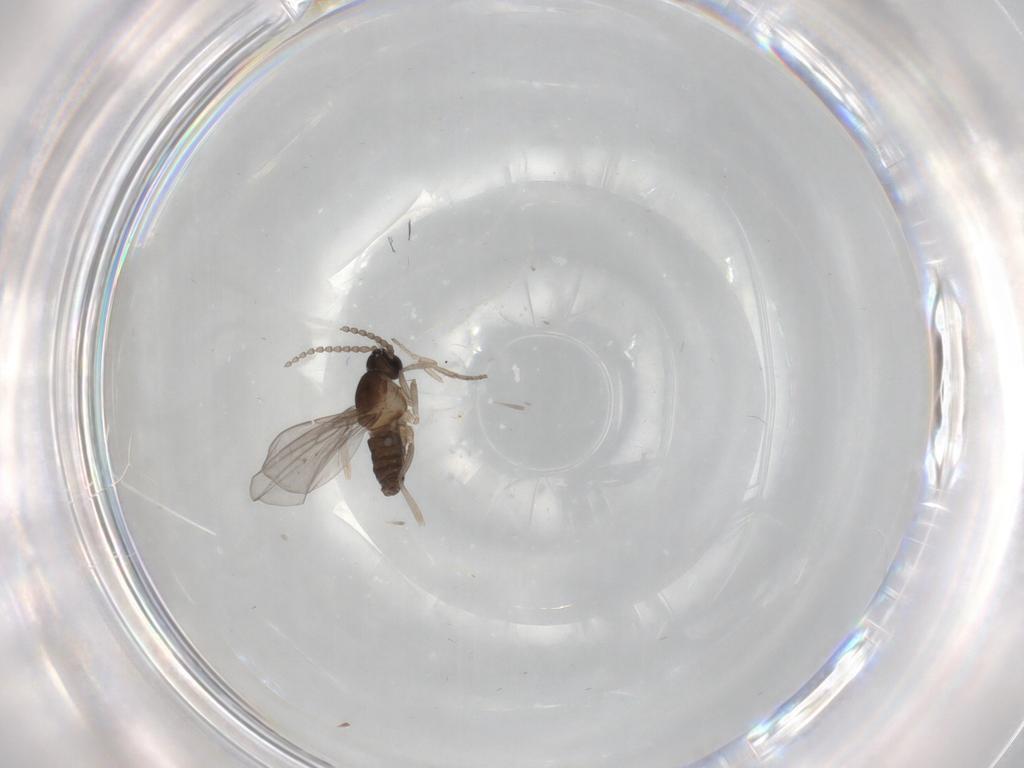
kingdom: Animalia
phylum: Arthropoda
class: Insecta
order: Diptera
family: Cecidomyiidae
